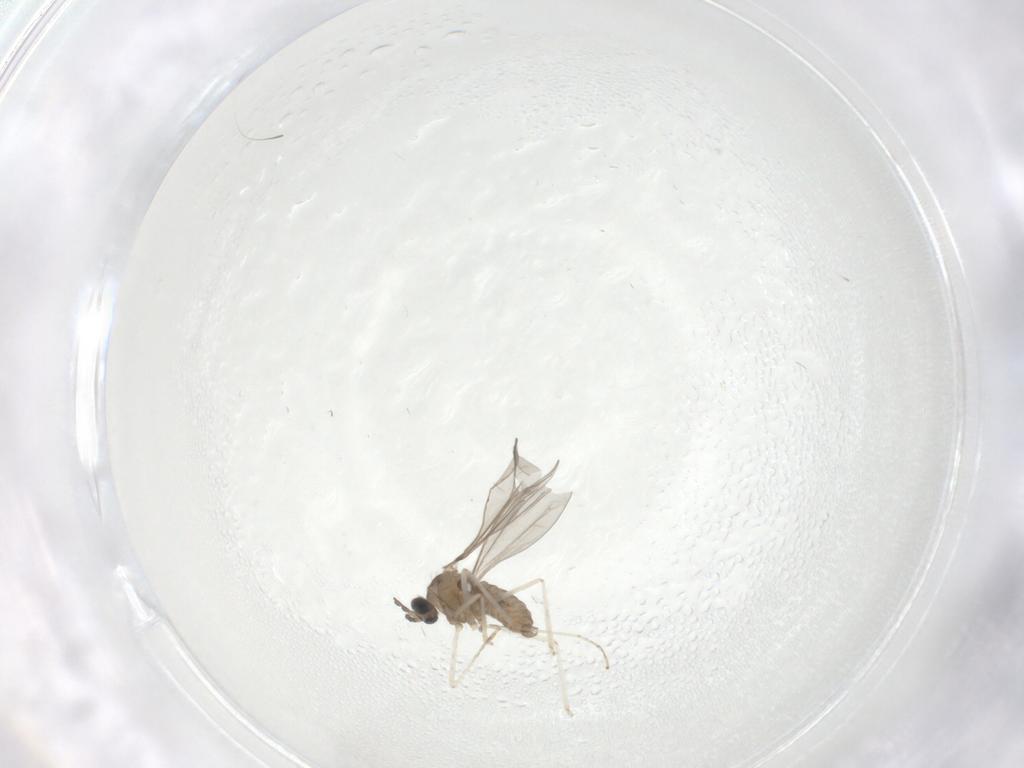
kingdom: Animalia
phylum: Arthropoda
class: Insecta
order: Diptera
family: Cecidomyiidae
